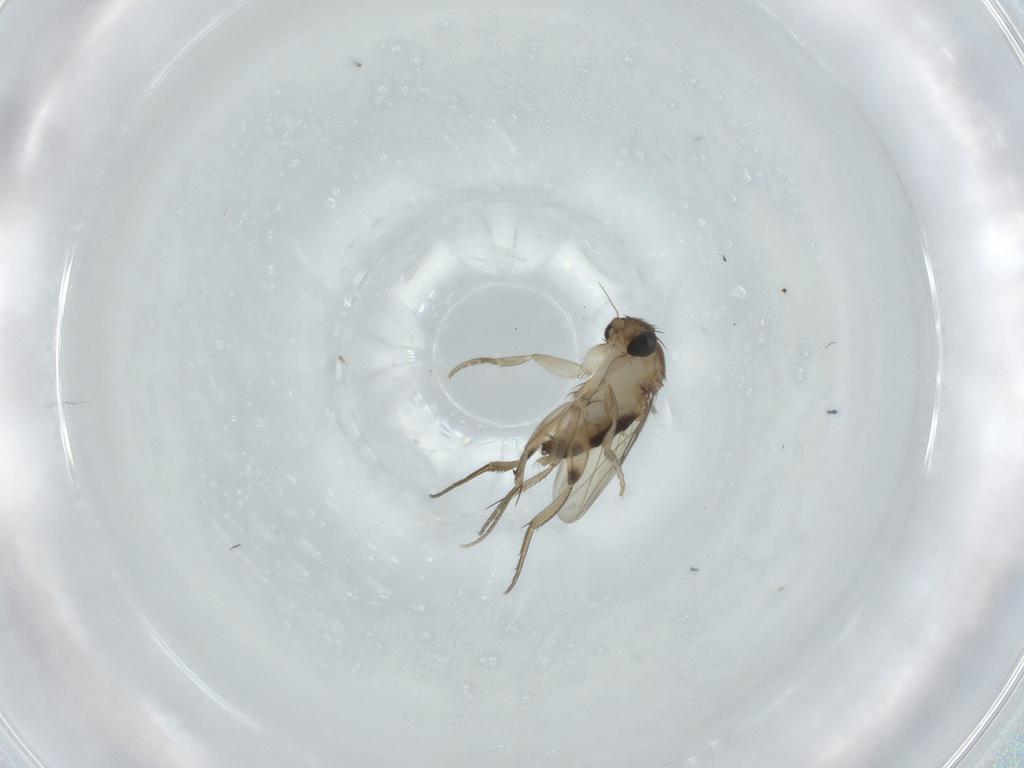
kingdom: Animalia
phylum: Arthropoda
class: Insecta
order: Diptera
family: Phoridae
